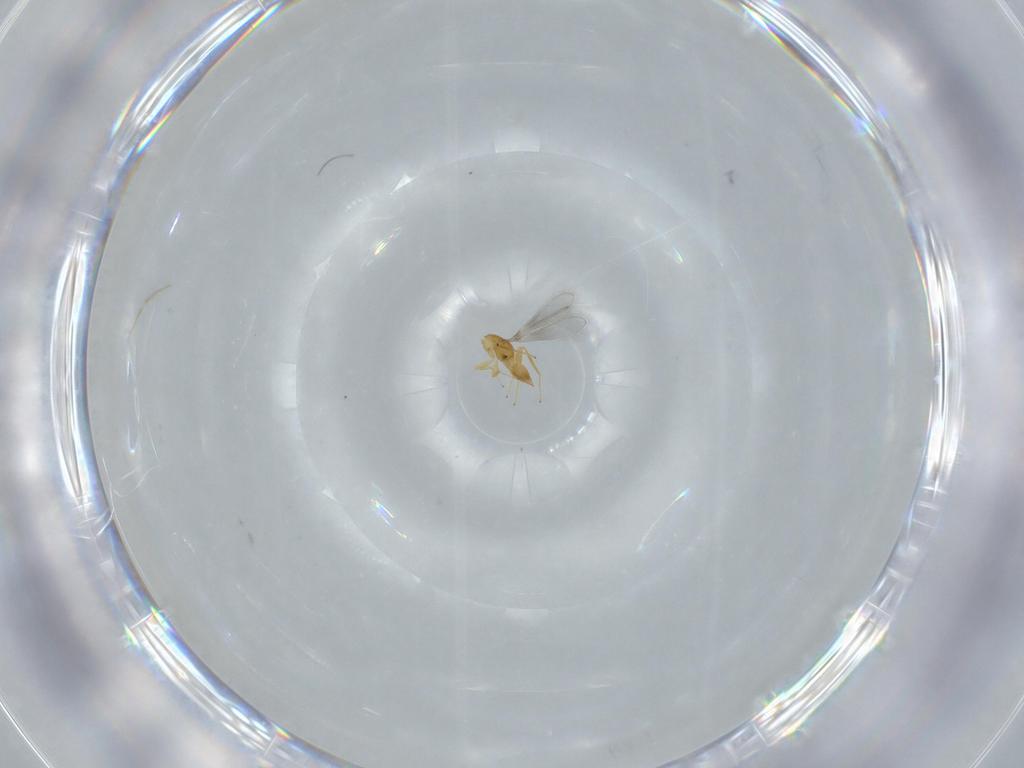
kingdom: Animalia
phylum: Arthropoda
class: Insecta
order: Hymenoptera
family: Mymaridae
